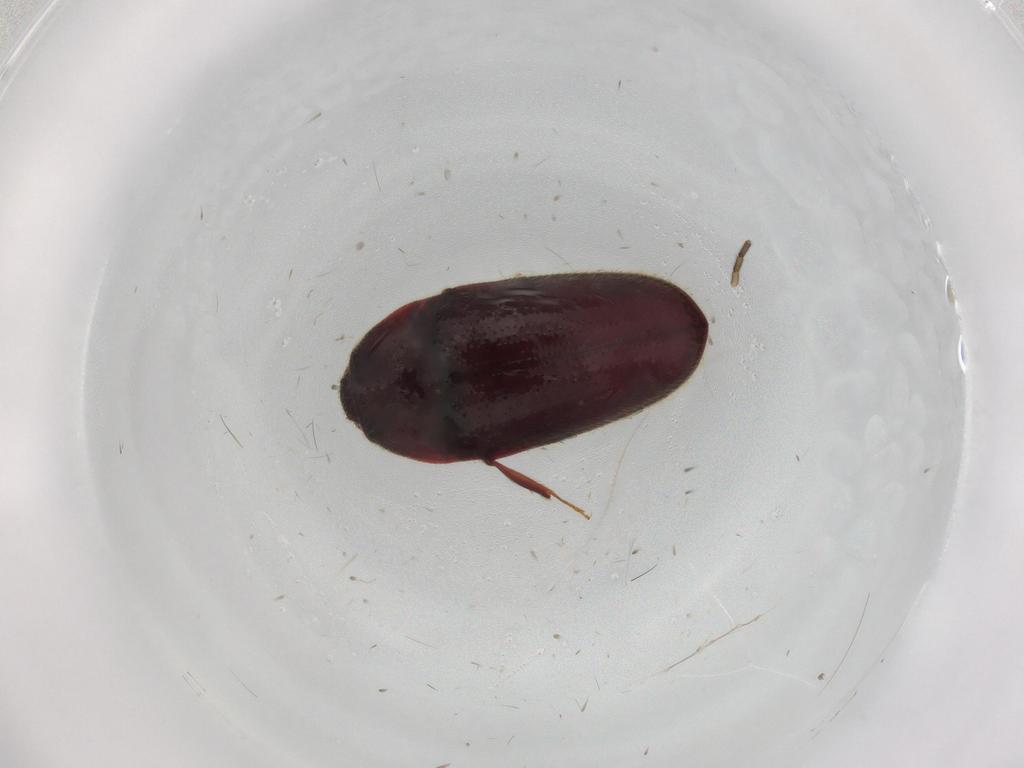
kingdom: Animalia
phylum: Arthropoda
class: Insecta
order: Coleoptera
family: Throscidae
